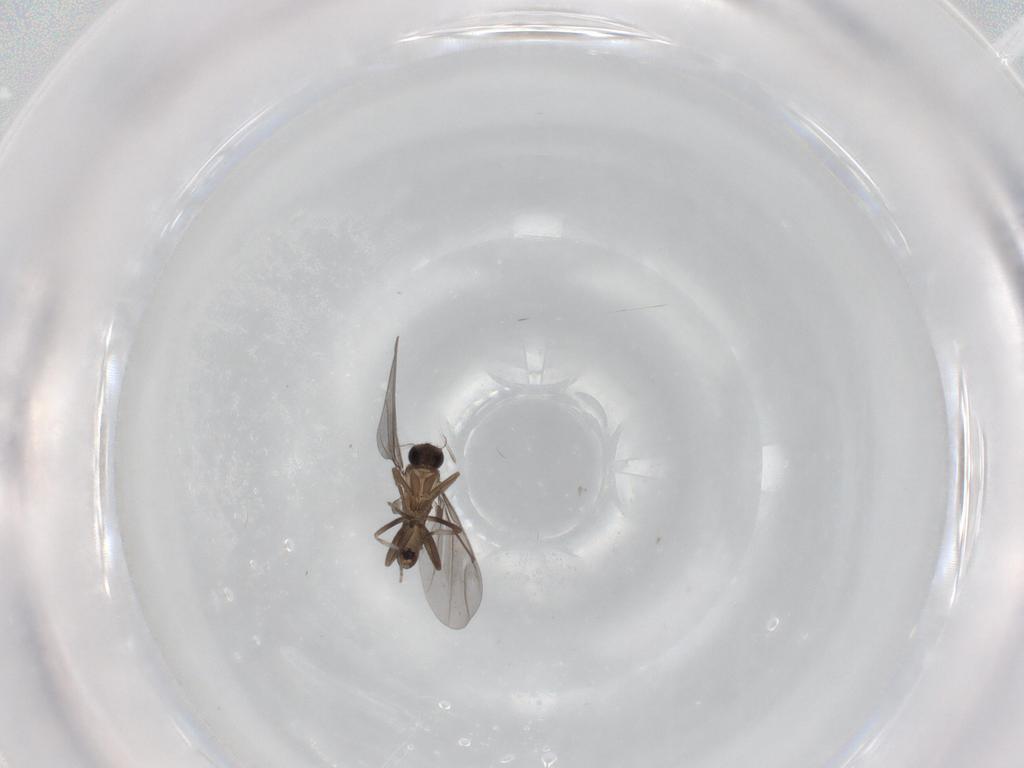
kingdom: Animalia
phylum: Arthropoda
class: Insecta
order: Diptera
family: Phoridae
